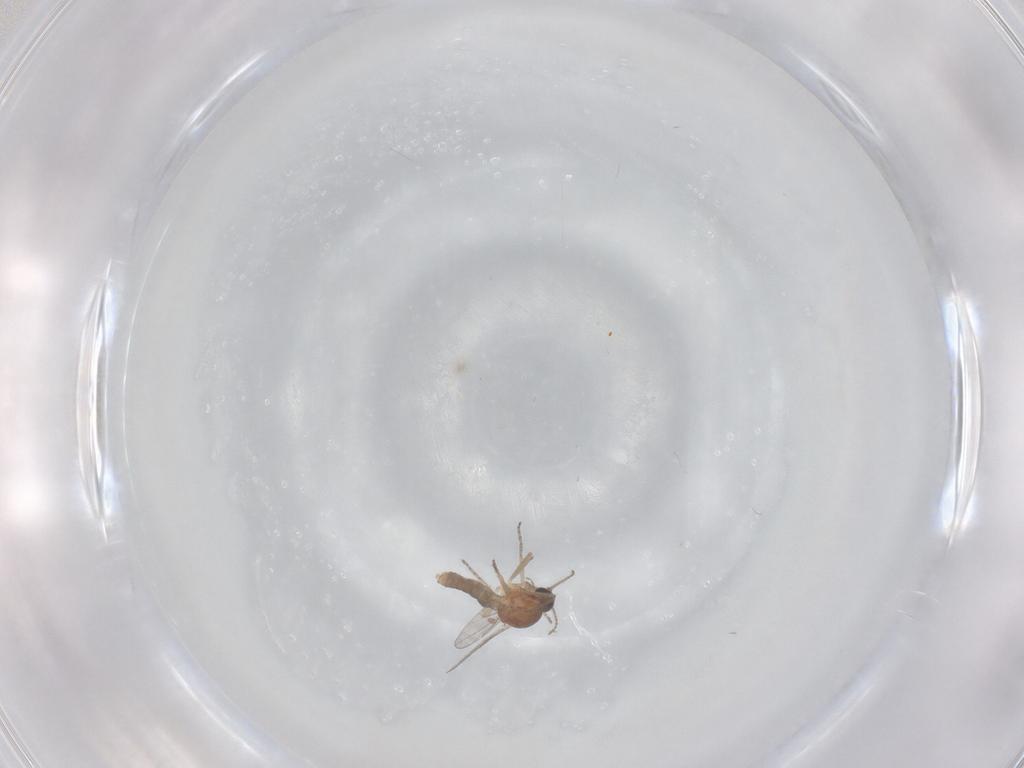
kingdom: Animalia
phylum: Arthropoda
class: Insecta
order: Diptera
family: Ceratopogonidae
